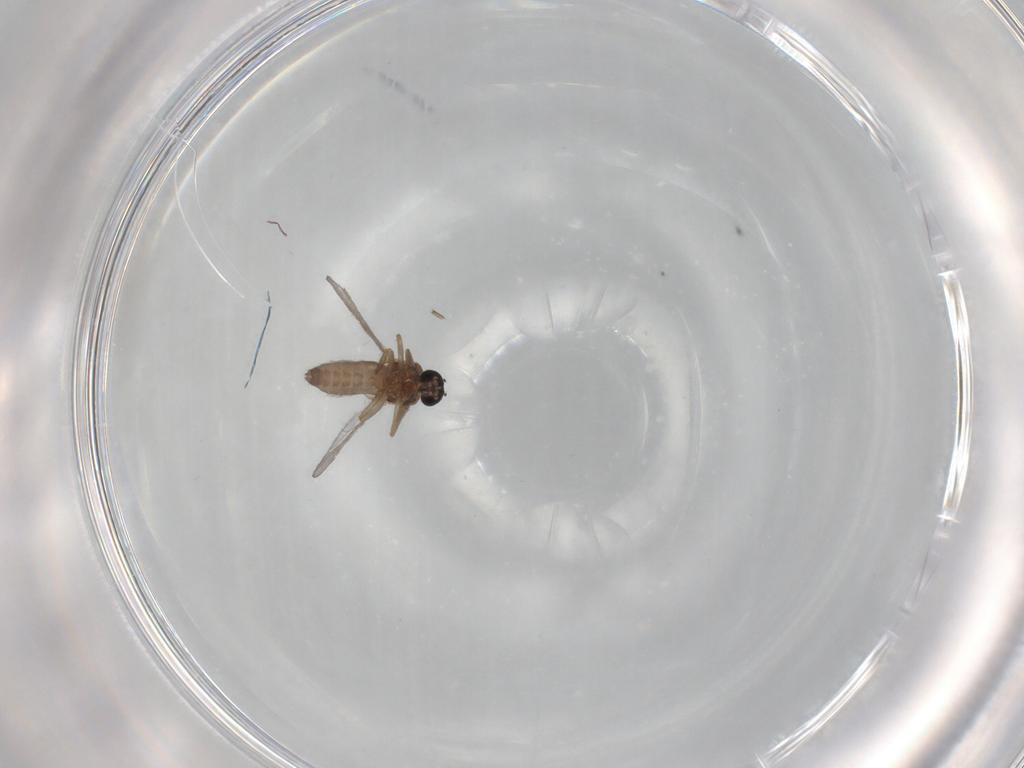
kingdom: Animalia
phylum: Arthropoda
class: Insecta
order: Diptera
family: Ceratopogonidae
